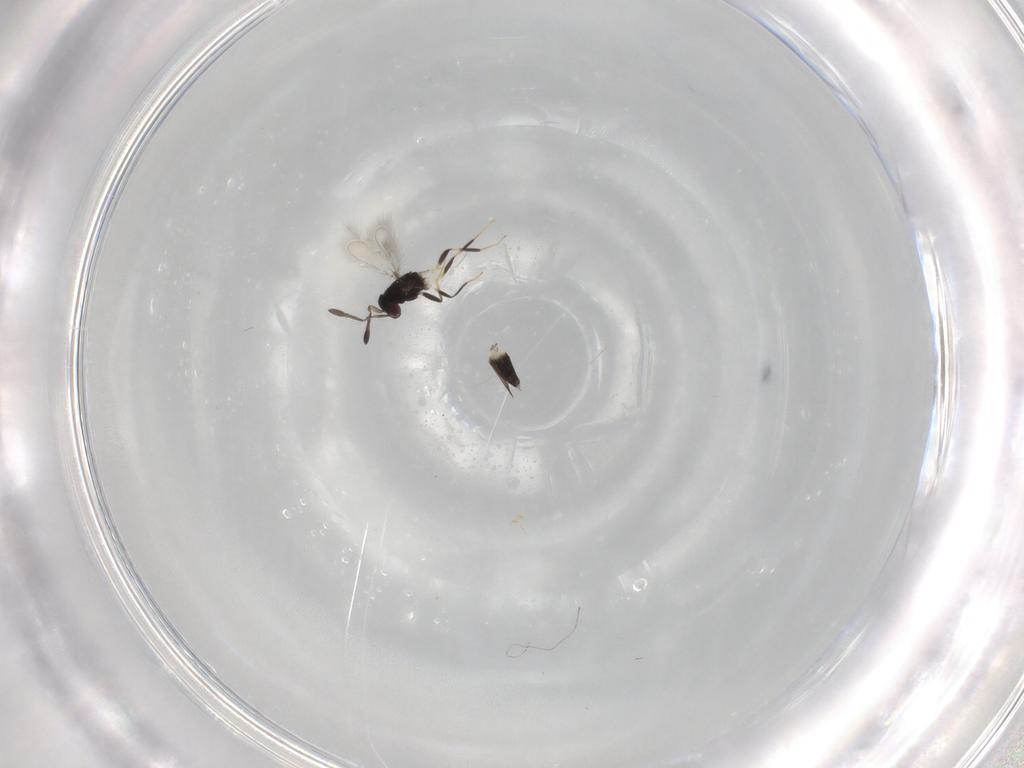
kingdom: Animalia
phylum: Arthropoda
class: Insecta
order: Hymenoptera
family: Mymaridae
